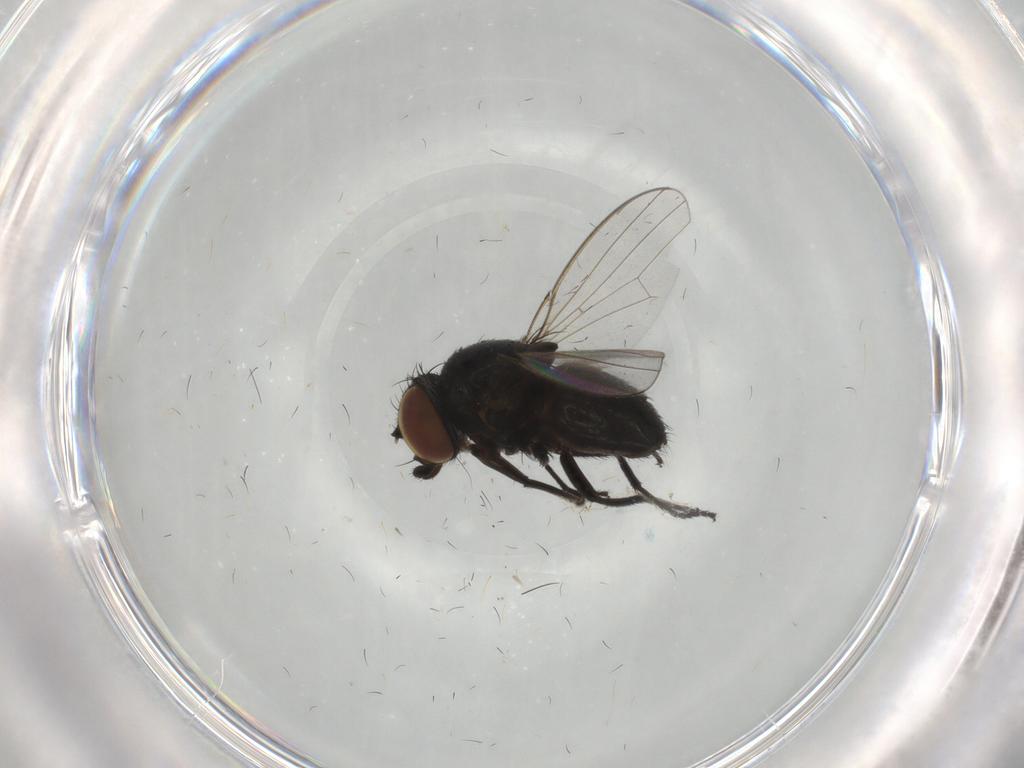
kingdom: Animalia
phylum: Arthropoda
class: Insecta
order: Diptera
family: Milichiidae
